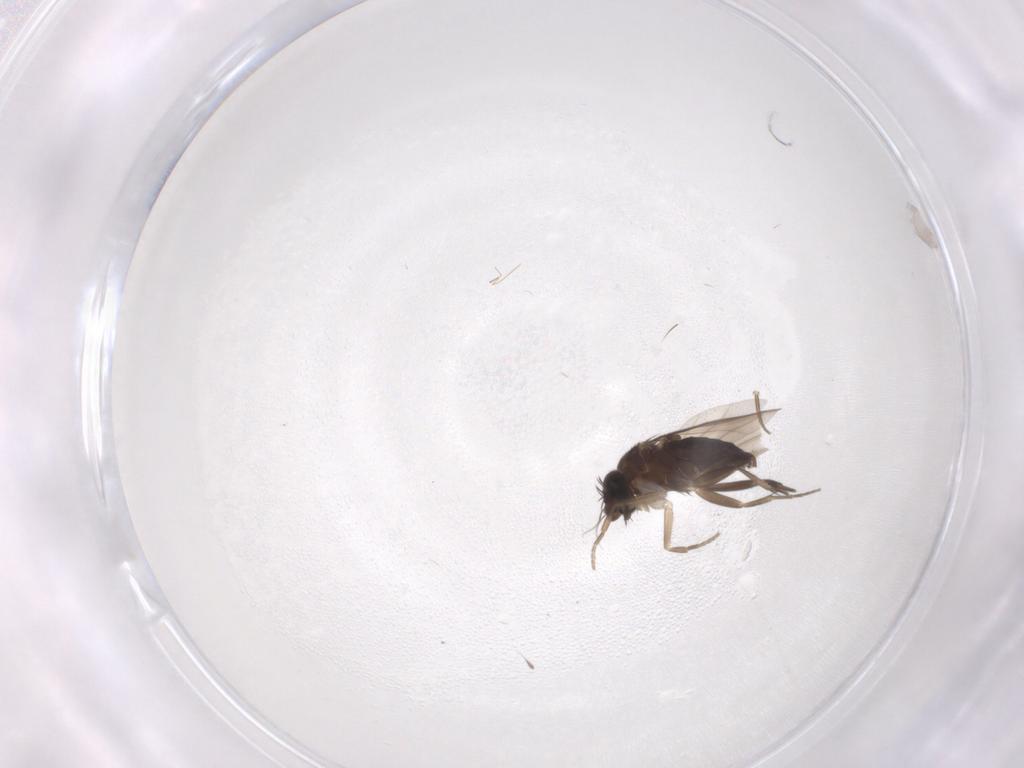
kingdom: Animalia
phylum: Arthropoda
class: Insecta
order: Diptera
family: Phoridae
